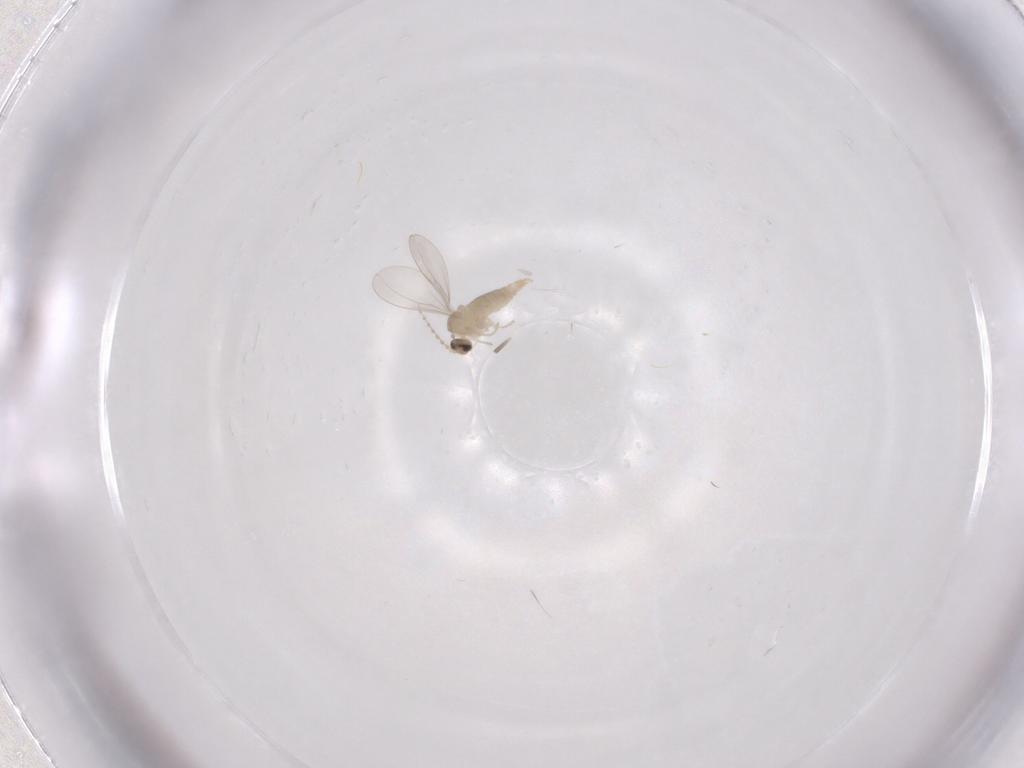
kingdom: Animalia
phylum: Arthropoda
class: Insecta
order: Diptera
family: Tabanidae
